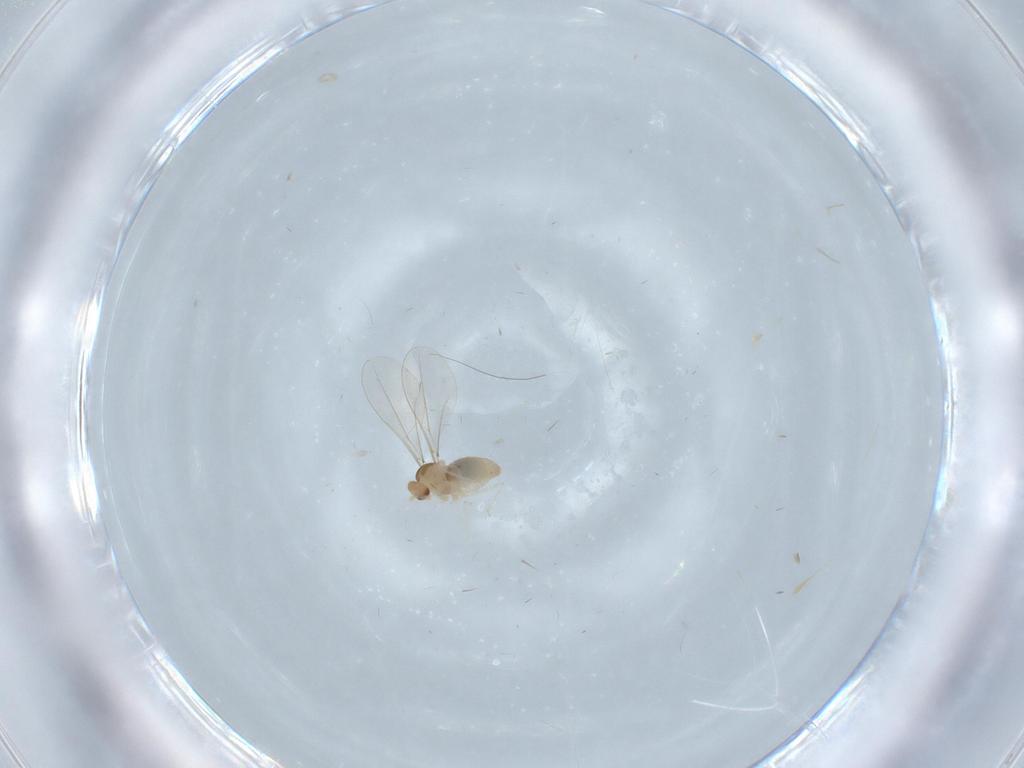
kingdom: Animalia
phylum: Arthropoda
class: Insecta
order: Diptera
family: Cecidomyiidae
